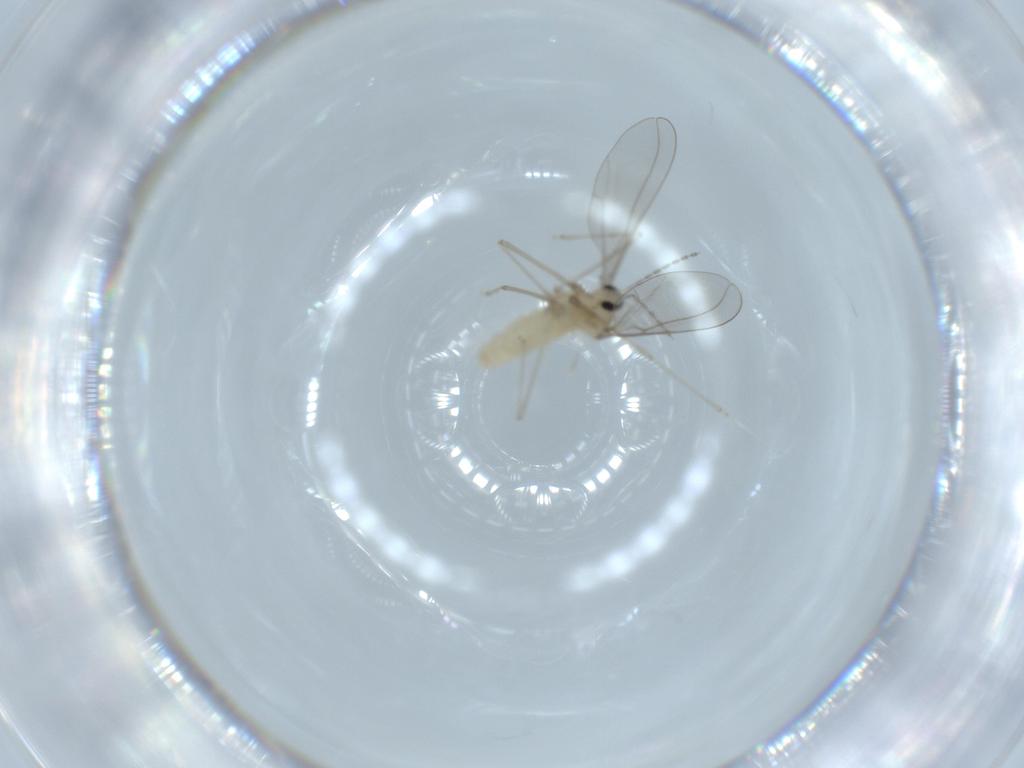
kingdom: Animalia
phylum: Arthropoda
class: Insecta
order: Diptera
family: Cecidomyiidae
